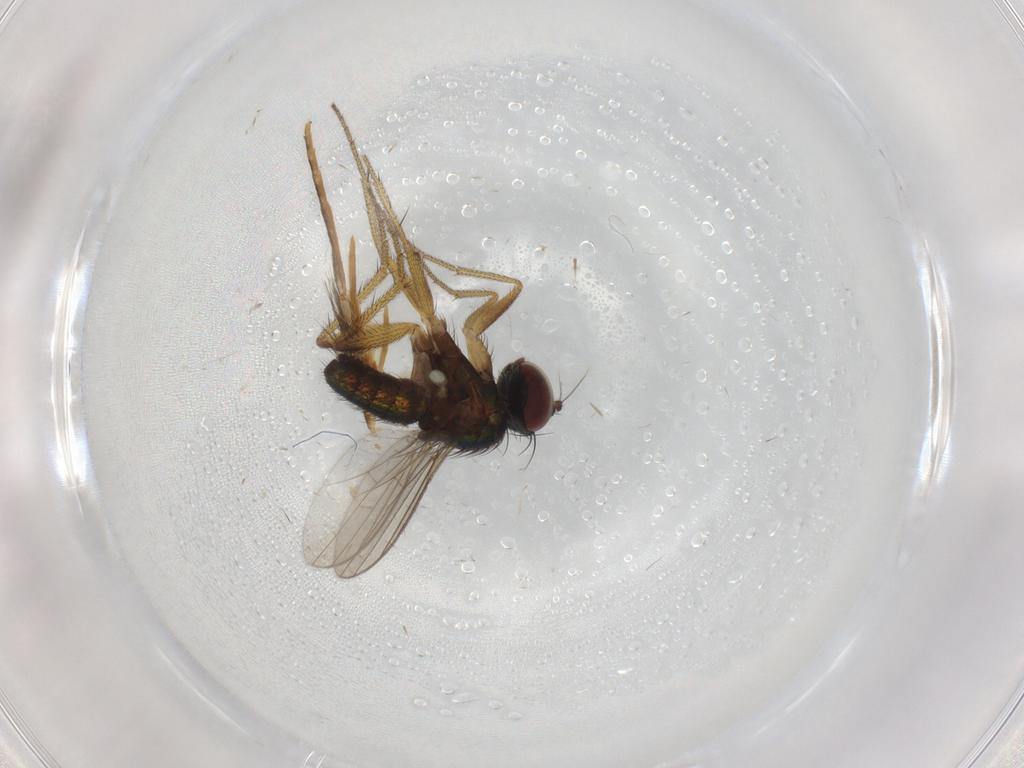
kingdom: Animalia
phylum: Arthropoda
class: Insecta
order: Diptera
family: Dolichopodidae
